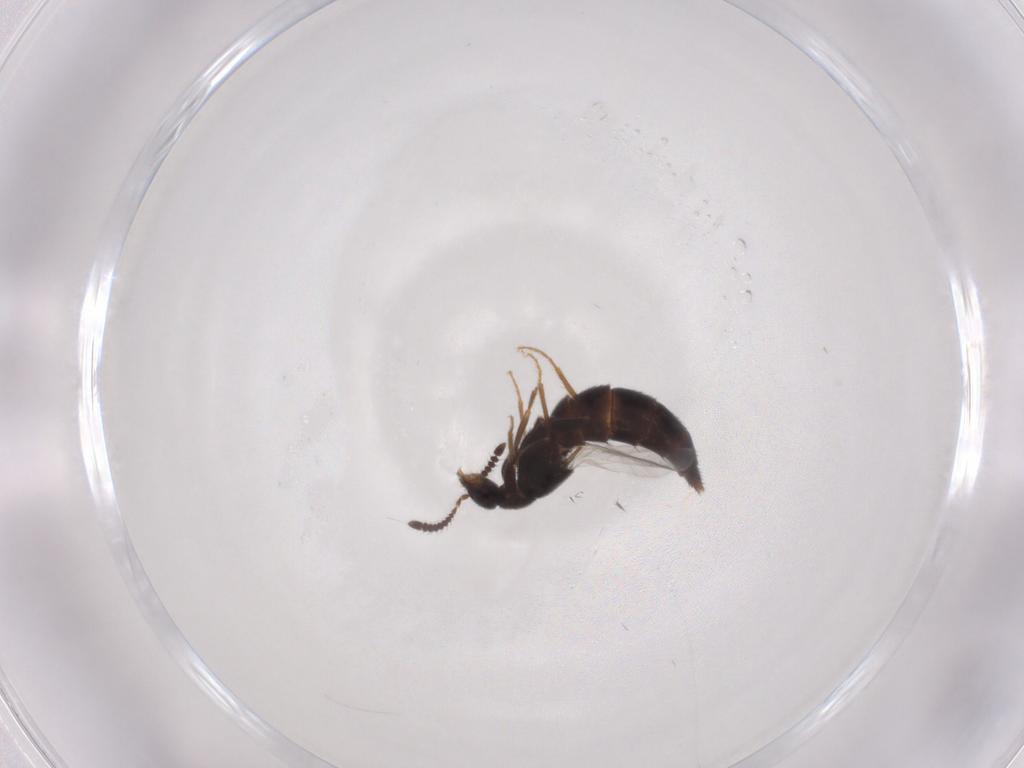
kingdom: Animalia
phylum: Arthropoda
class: Insecta
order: Coleoptera
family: Staphylinidae
